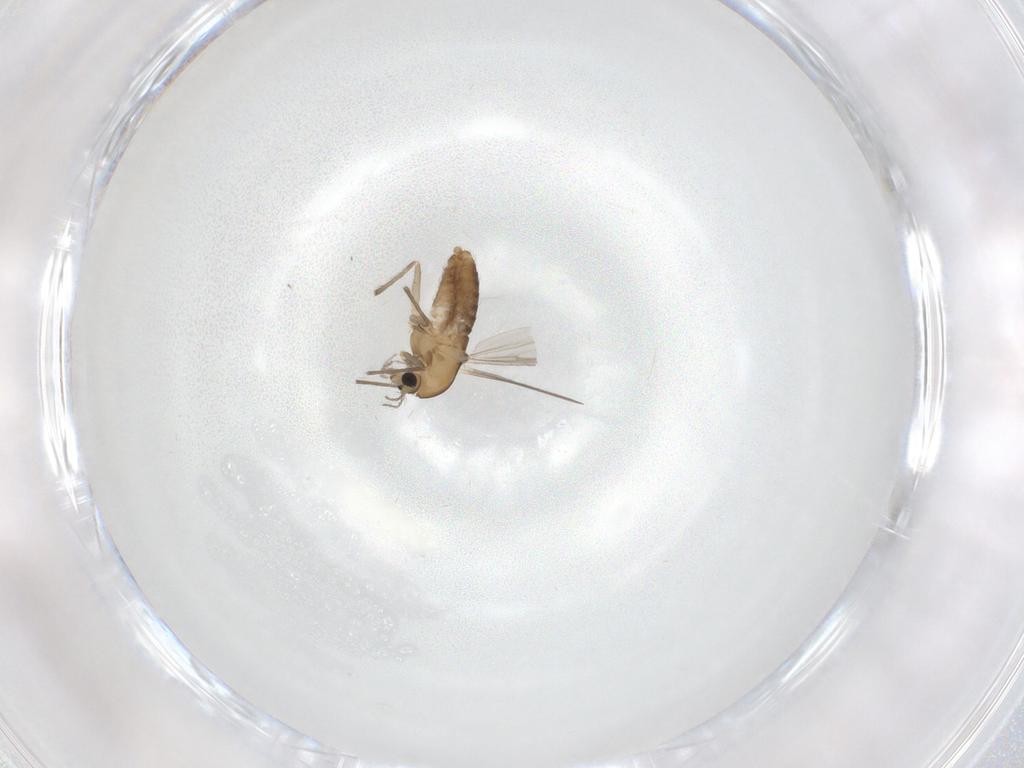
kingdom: Animalia
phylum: Arthropoda
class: Insecta
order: Diptera
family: Chironomidae
